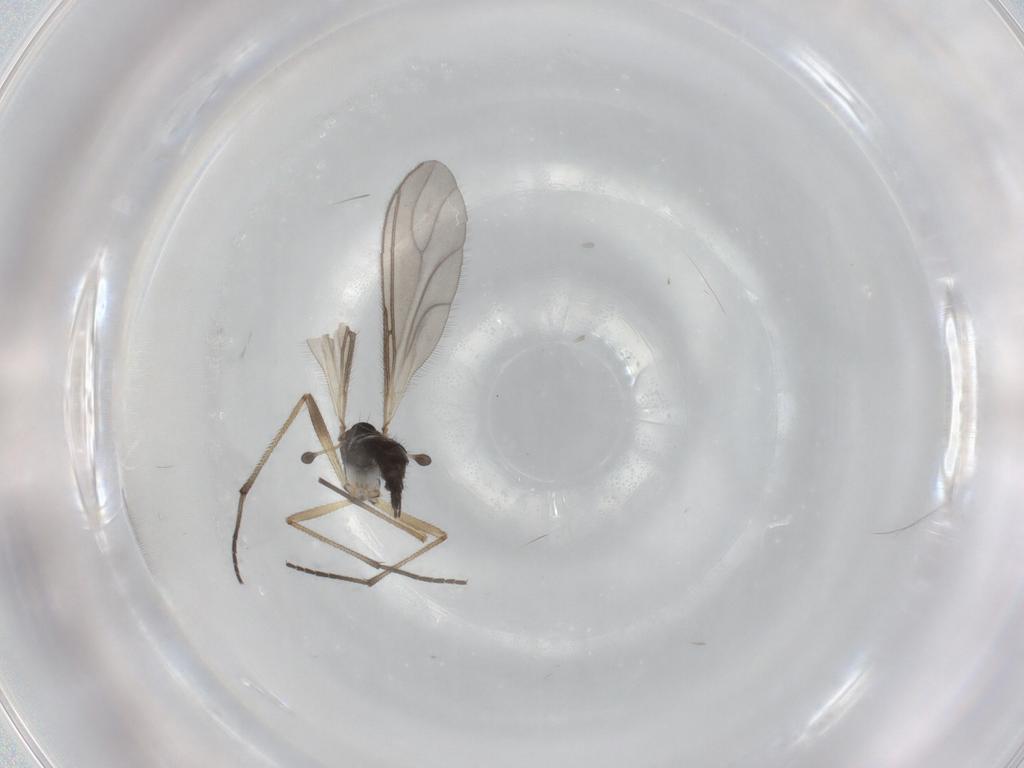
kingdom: Animalia
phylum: Arthropoda
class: Insecta
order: Diptera
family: Sciaridae
